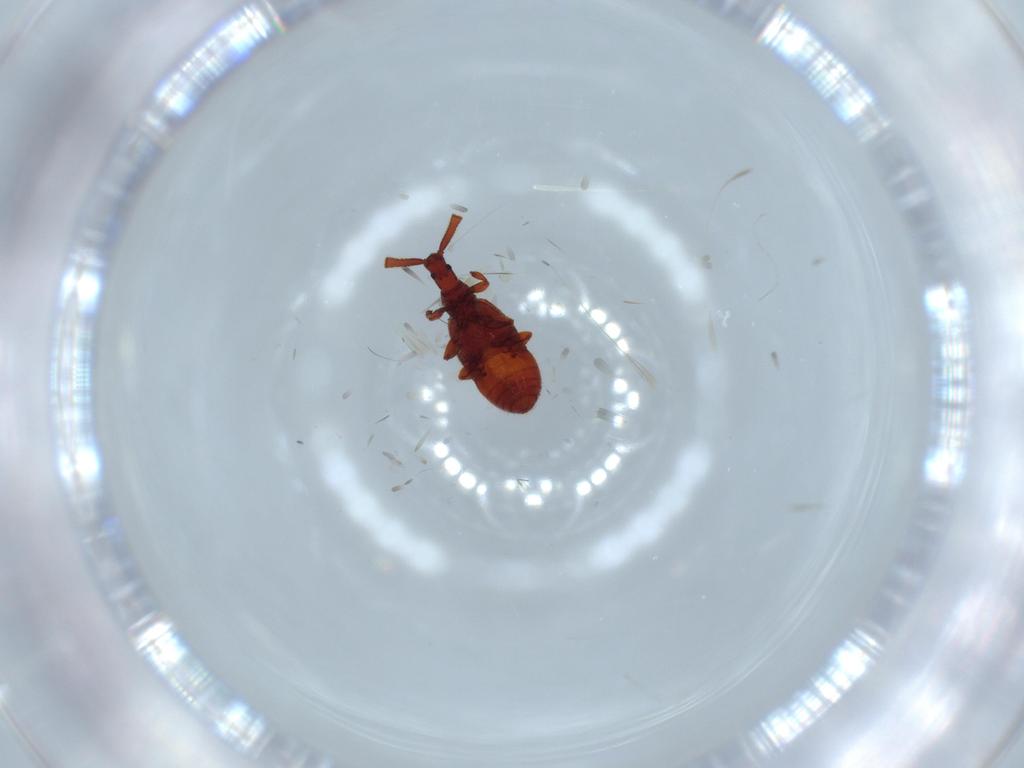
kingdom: Animalia
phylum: Arthropoda
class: Insecta
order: Coleoptera
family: Staphylinidae
